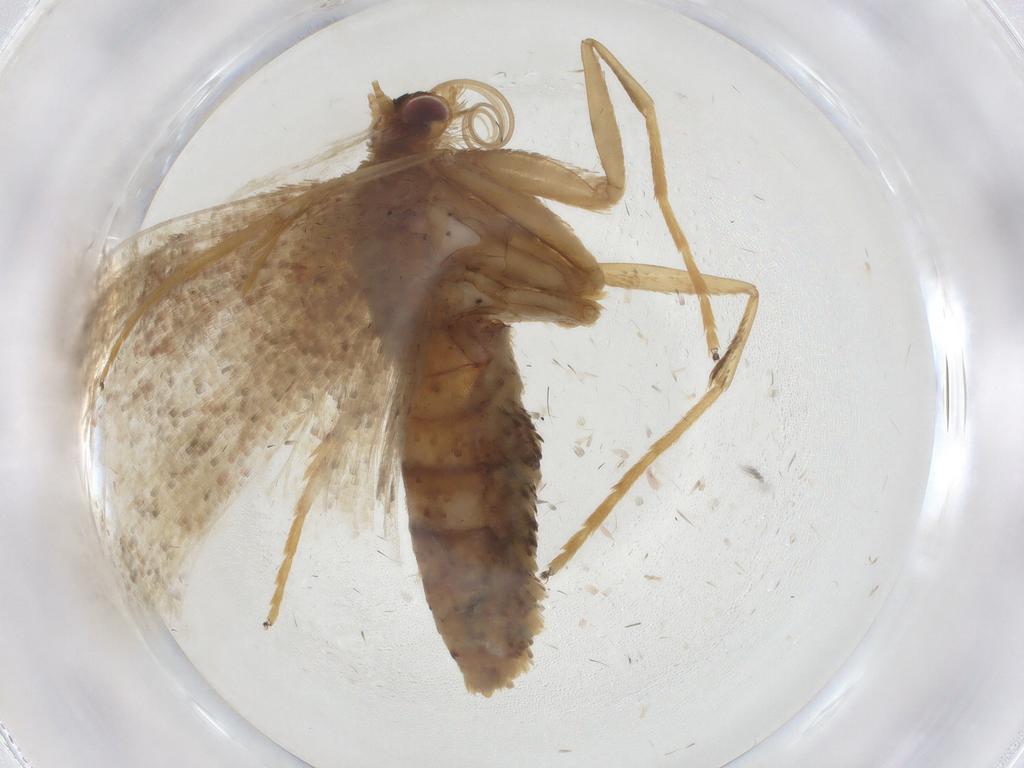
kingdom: Animalia
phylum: Arthropoda
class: Insecta
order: Lepidoptera
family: Geometridae
